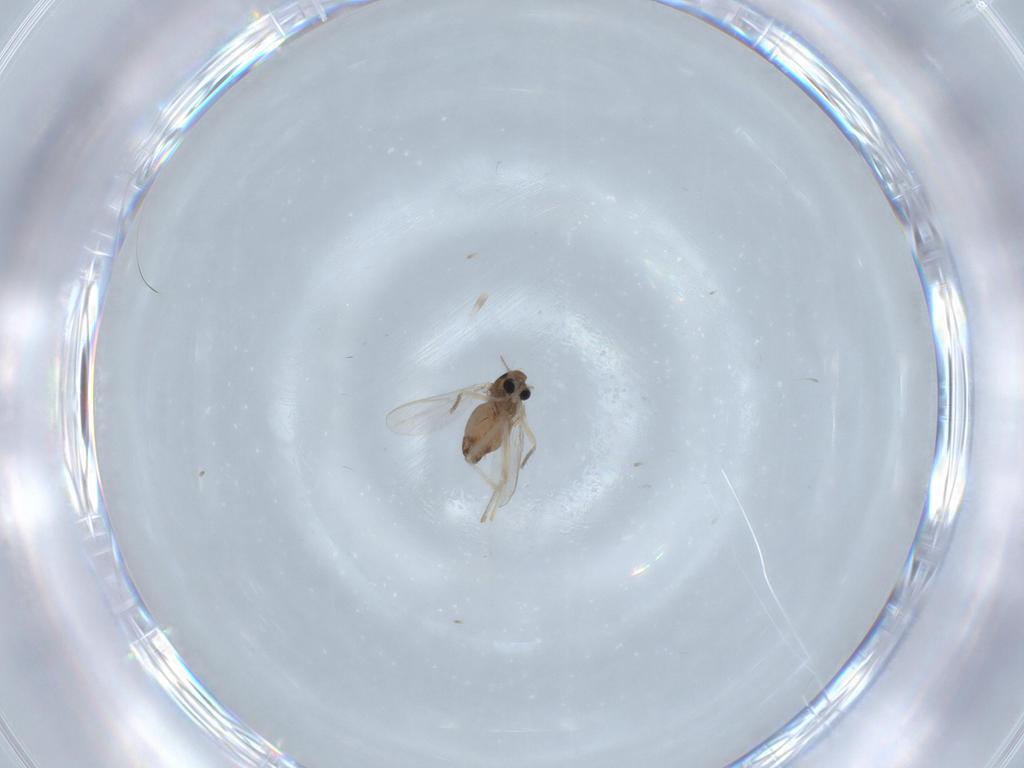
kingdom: Animalia
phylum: Arthropoda
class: Insecta
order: Diptera
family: Chironomidae
